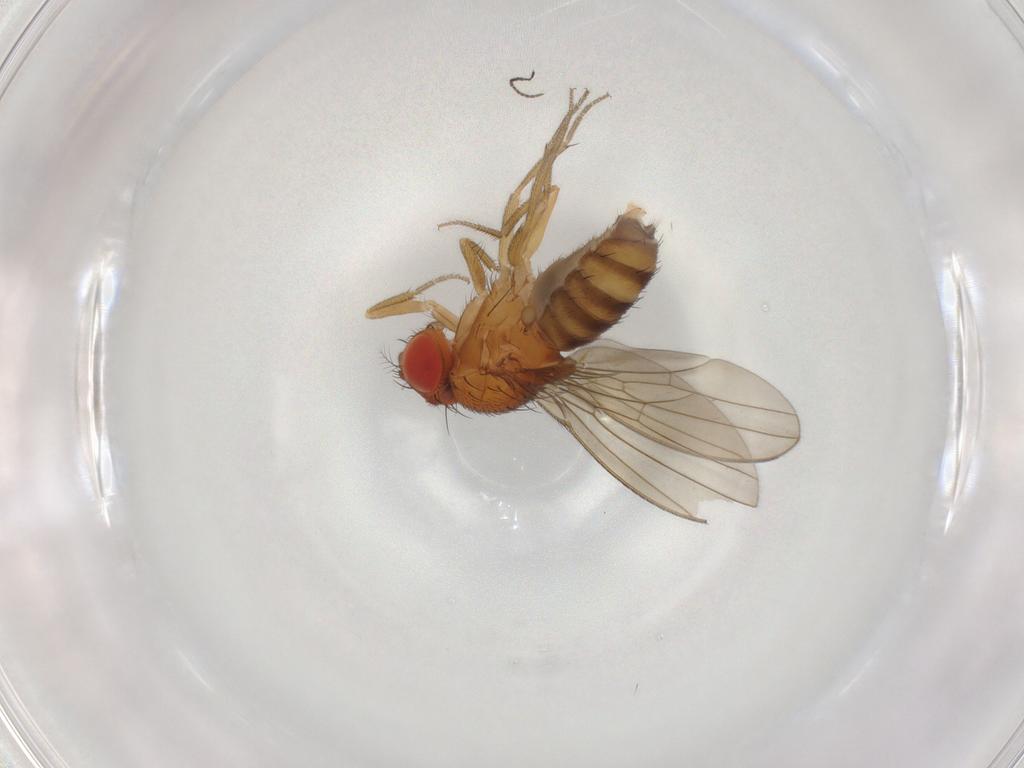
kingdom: Animalia
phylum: Arthropoda
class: Insecta
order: Diptera
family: Drosophilidae
